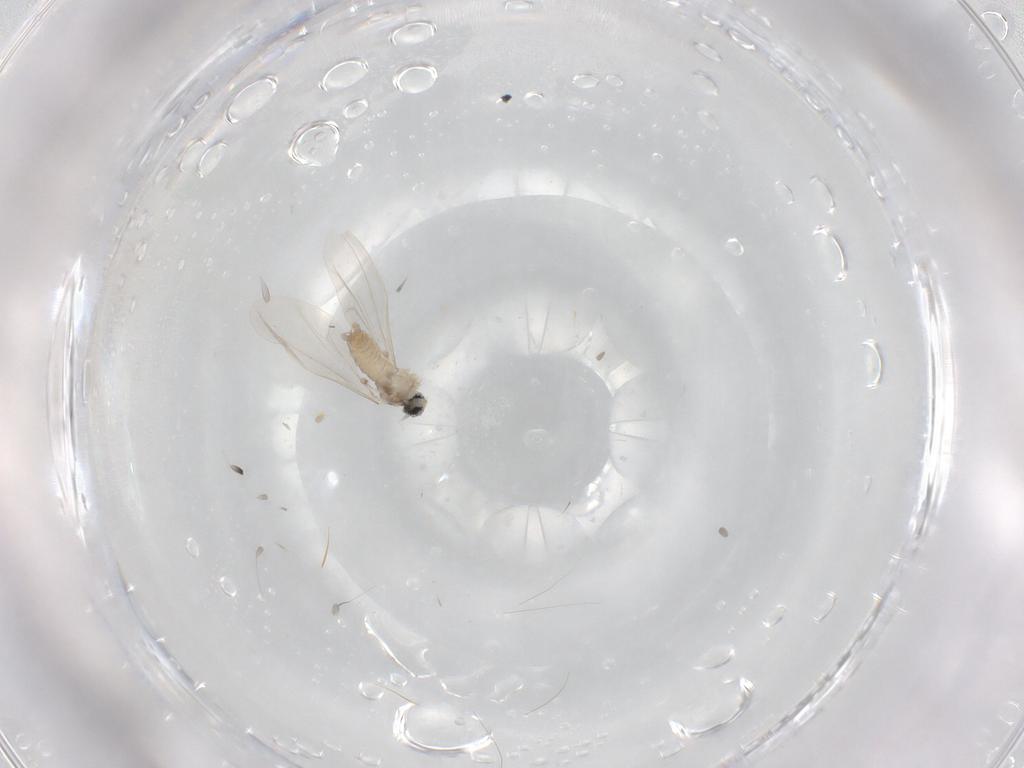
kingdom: Animalia
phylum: Arthropoda
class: Insecta
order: Diptera
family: Cecidomyiidae
